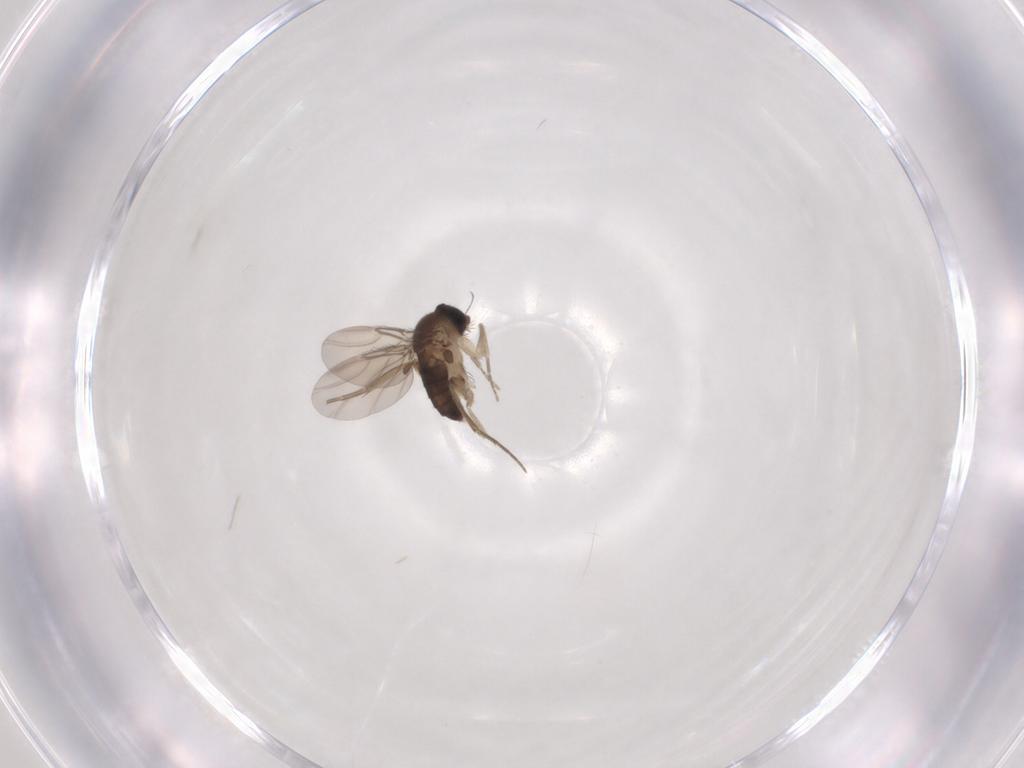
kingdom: Animalia
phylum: Arthropoda
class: Insecta
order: Diptera
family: Phoridae
